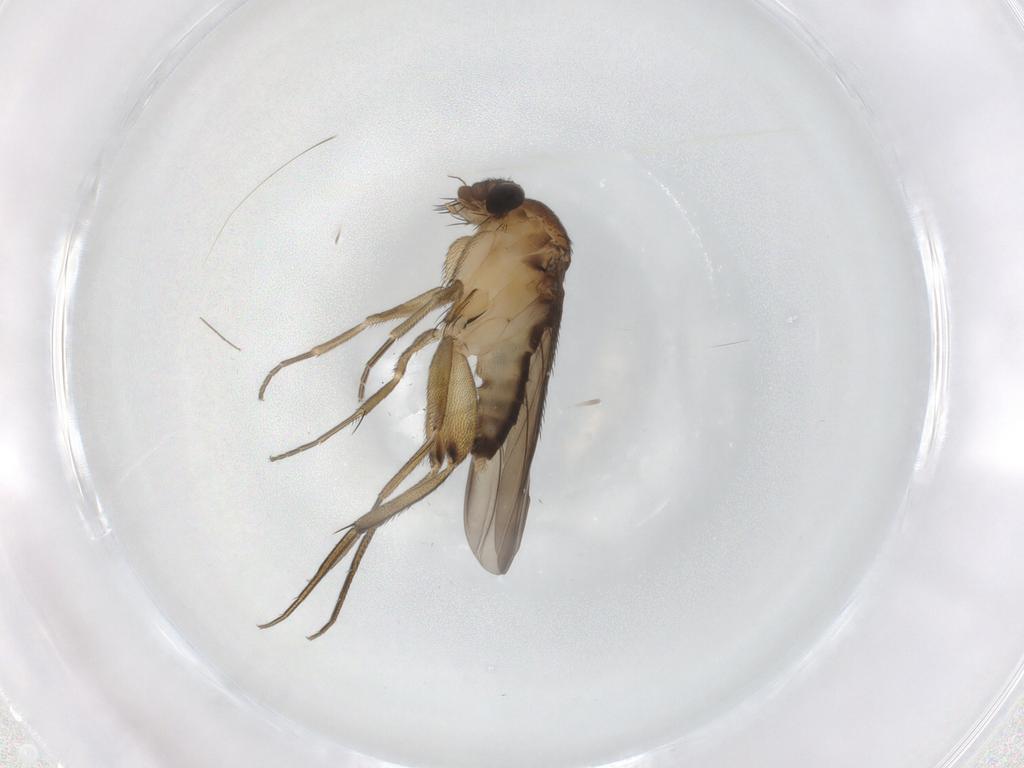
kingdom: Animalia
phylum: Arthropoda
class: Insecta
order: Diptera
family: Phoridae
